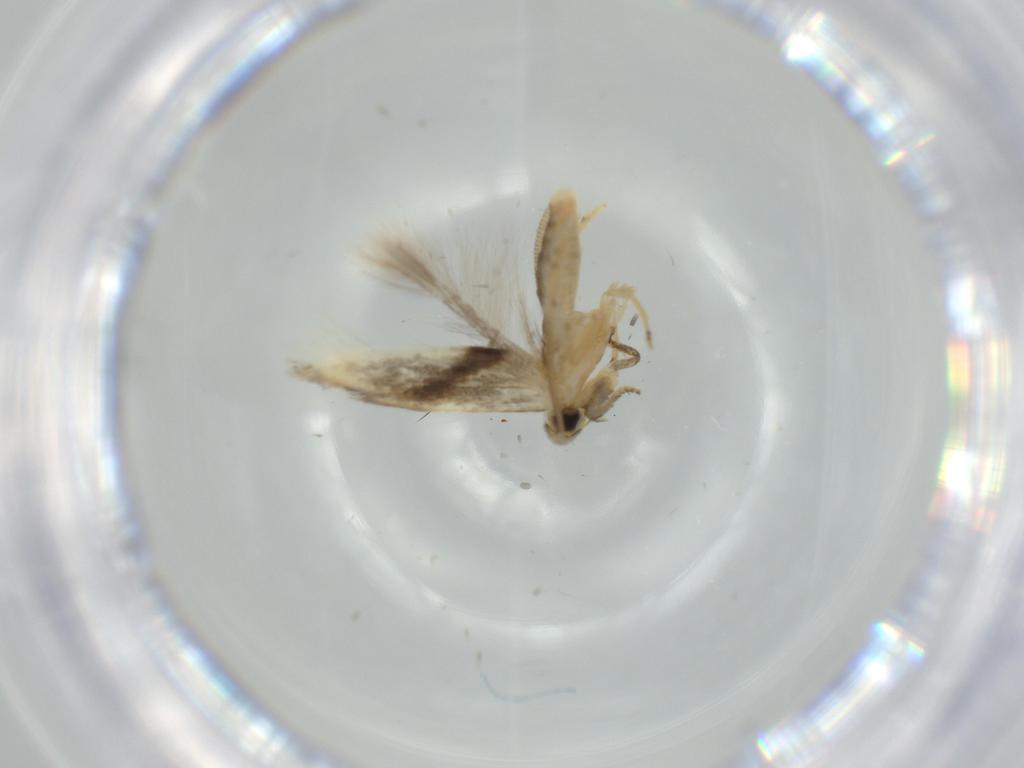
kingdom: Animalia
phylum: Arthropoda
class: Insecta
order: Lepidoptera
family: Opostegidae
